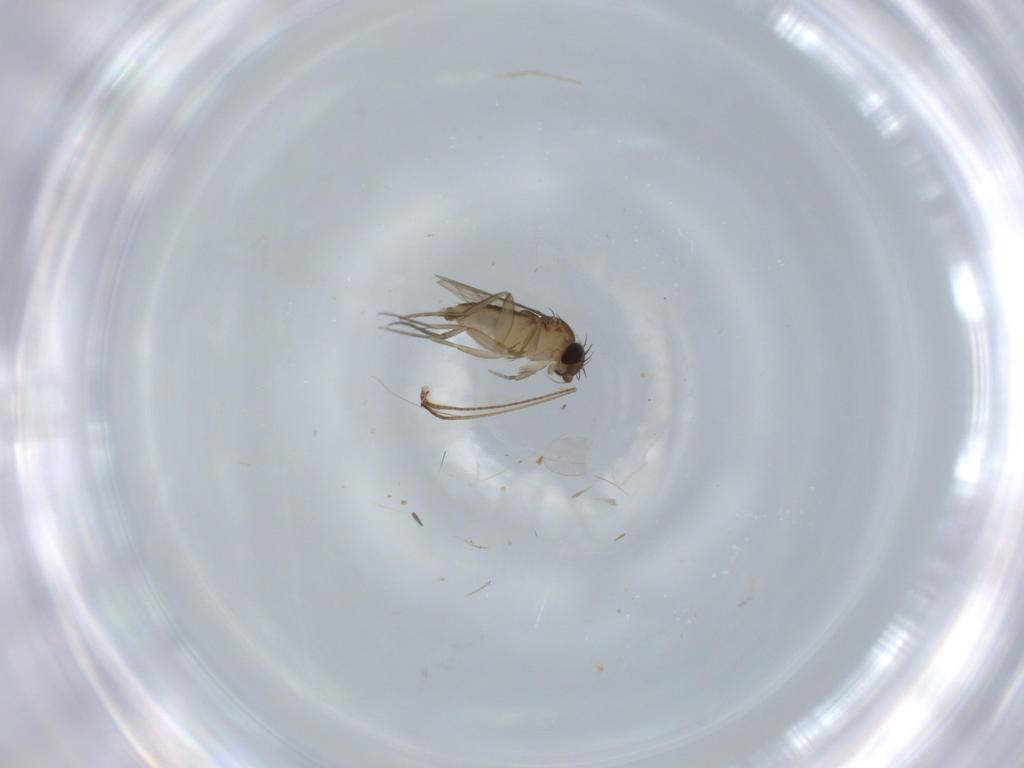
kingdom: Animalia
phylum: Arthropoda
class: Insecta
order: Diptera
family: Phoridae
